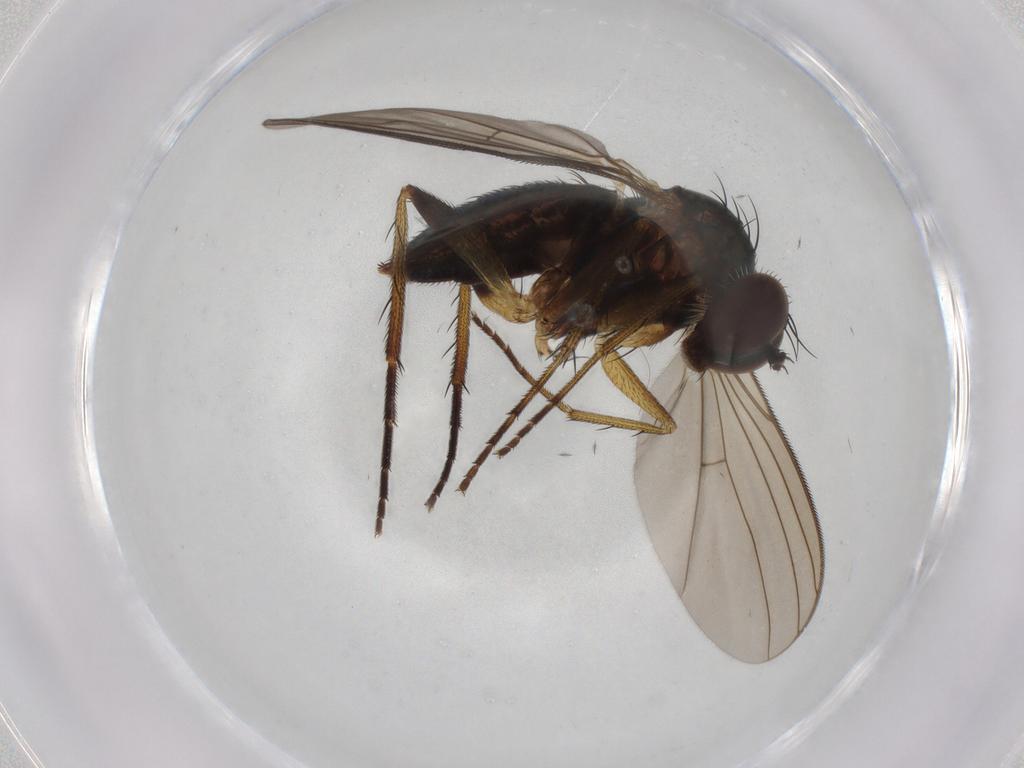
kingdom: Animalia
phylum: Arthropoda
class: Insecta
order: Diptera
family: Dolichopodidae
